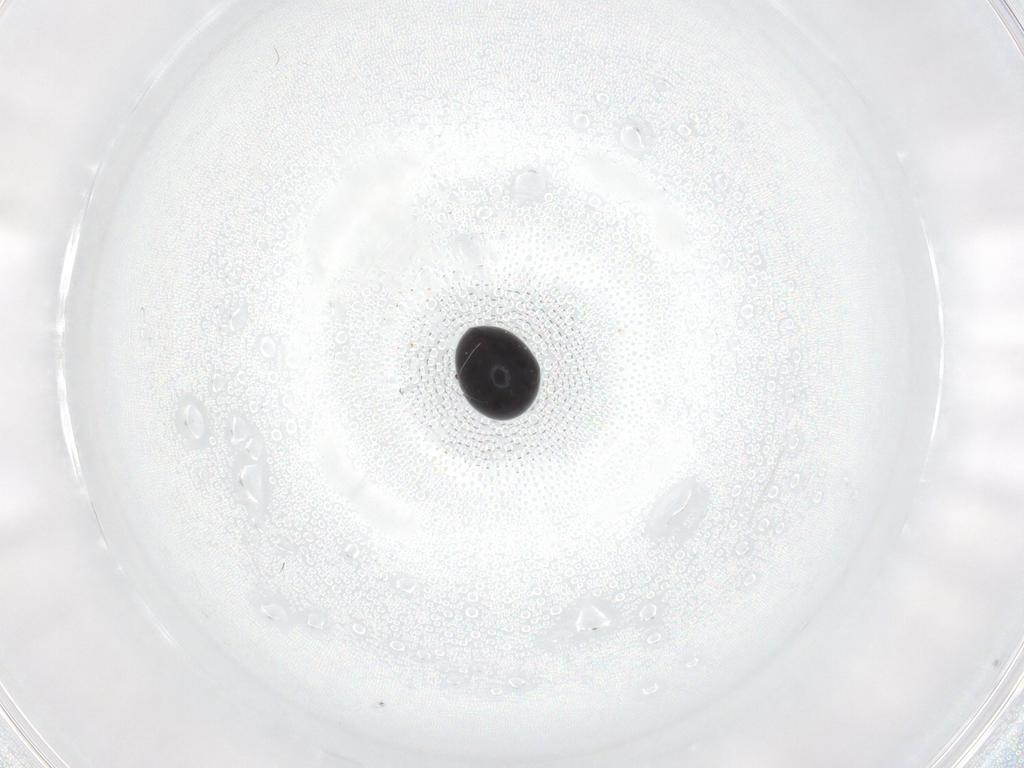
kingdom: Animalia
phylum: Arthropoda
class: Insecta
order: Coleoptera
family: Cybocephalidae
